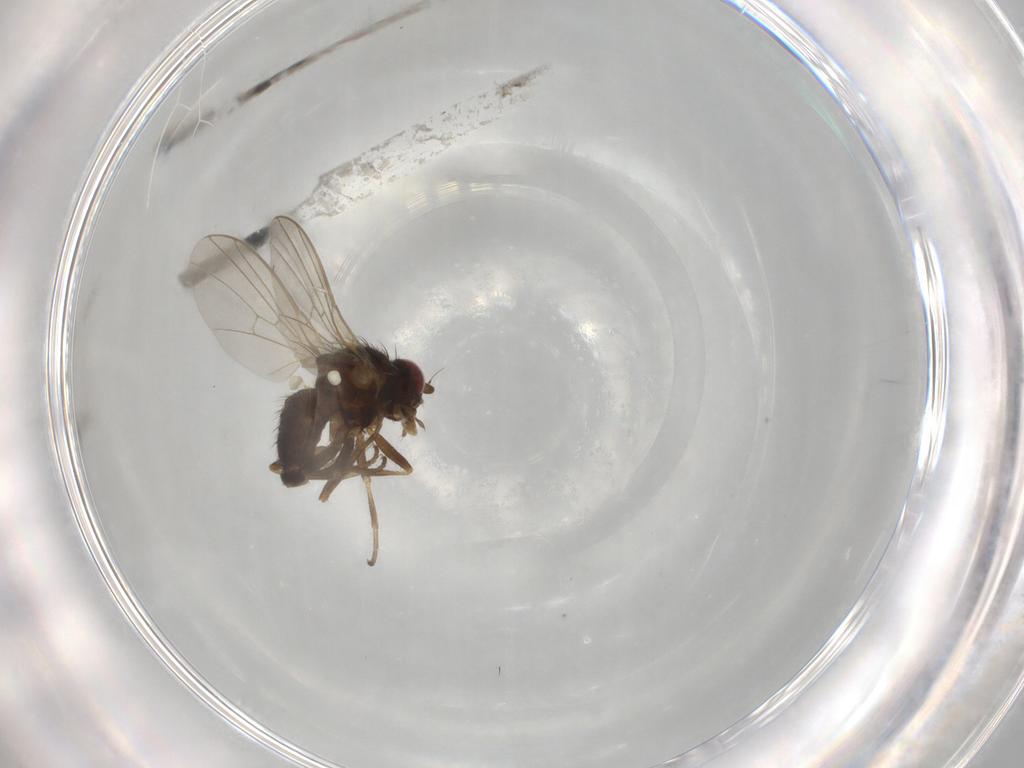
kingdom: Animalia
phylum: Arthropoda
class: Insecta
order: Diptera
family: Agromyzidae
